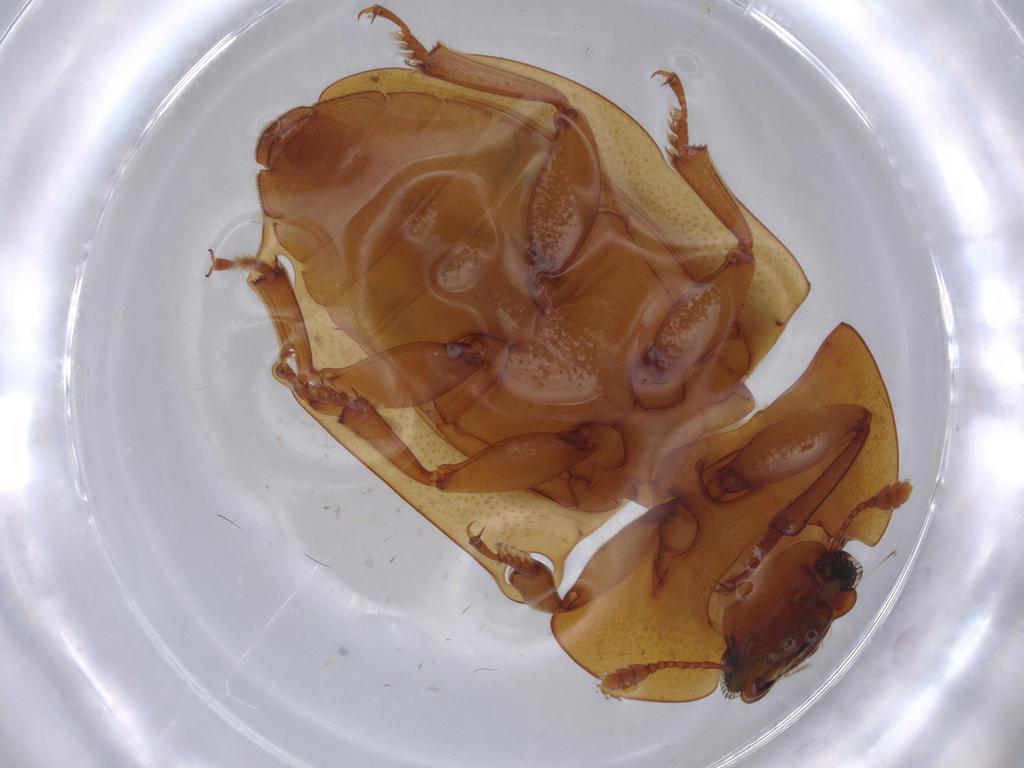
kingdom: Animalia
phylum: Arthropoda
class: Insecta
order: Coleoptera
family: Nitidulidae
